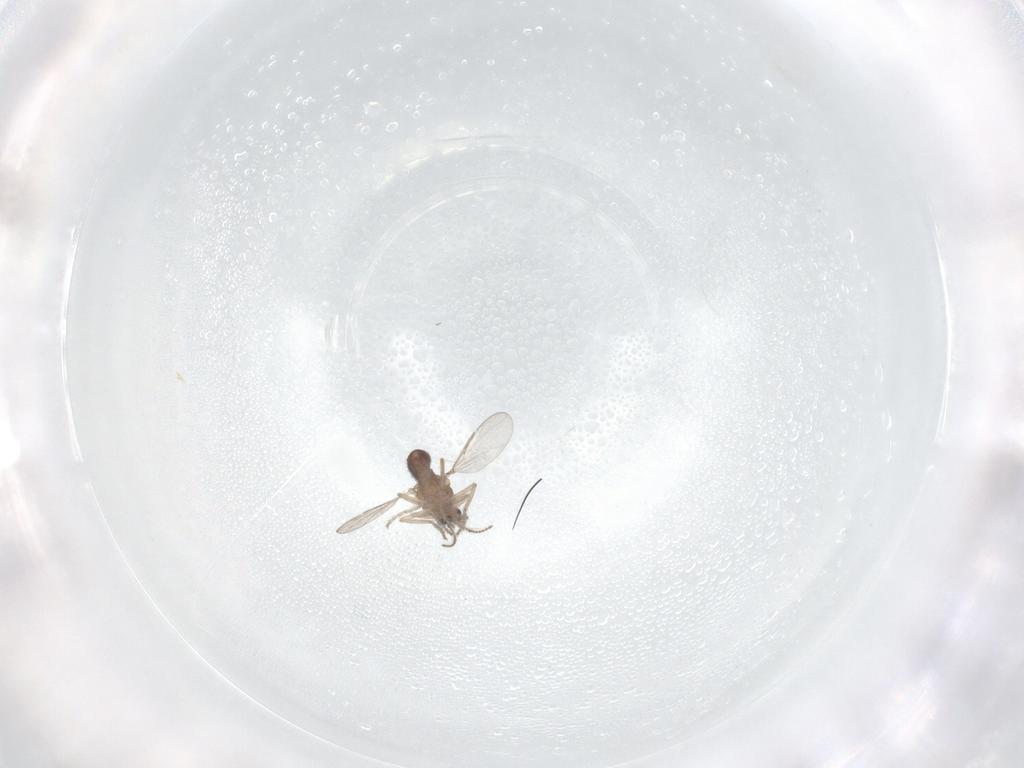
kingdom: Animalia
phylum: Arthropoda
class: Insecta
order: Diptera
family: Ceratopogonidae
